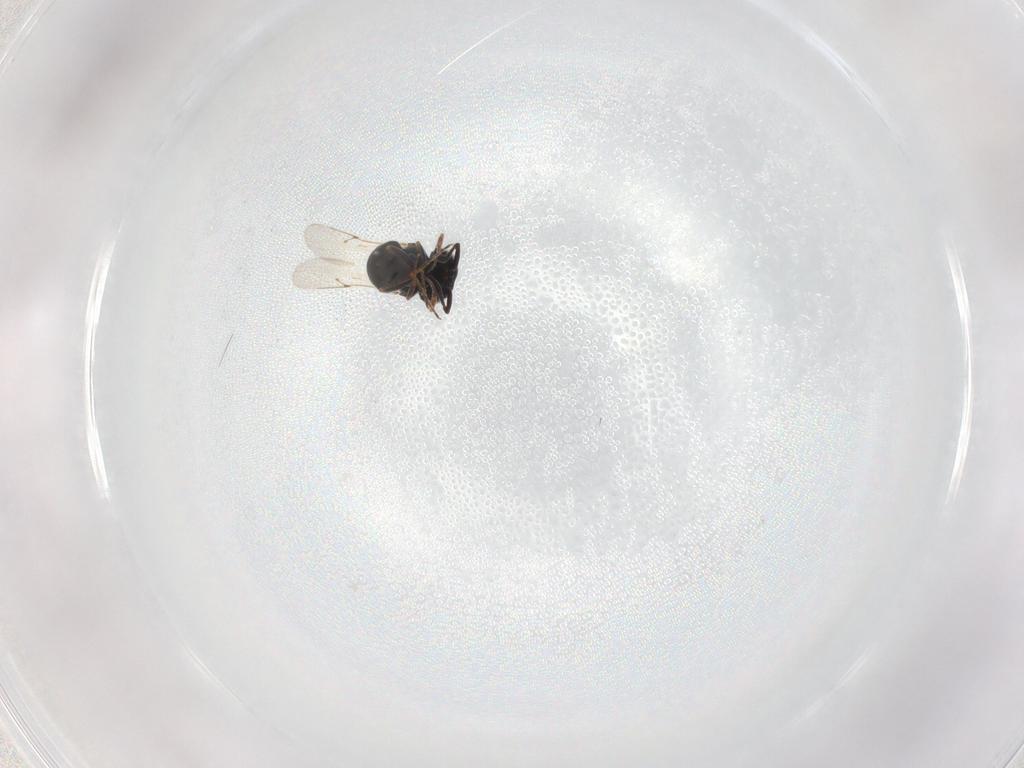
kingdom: Animalia
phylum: Arthropoda
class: Insecta
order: Hymenoptera
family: Scelionidae
